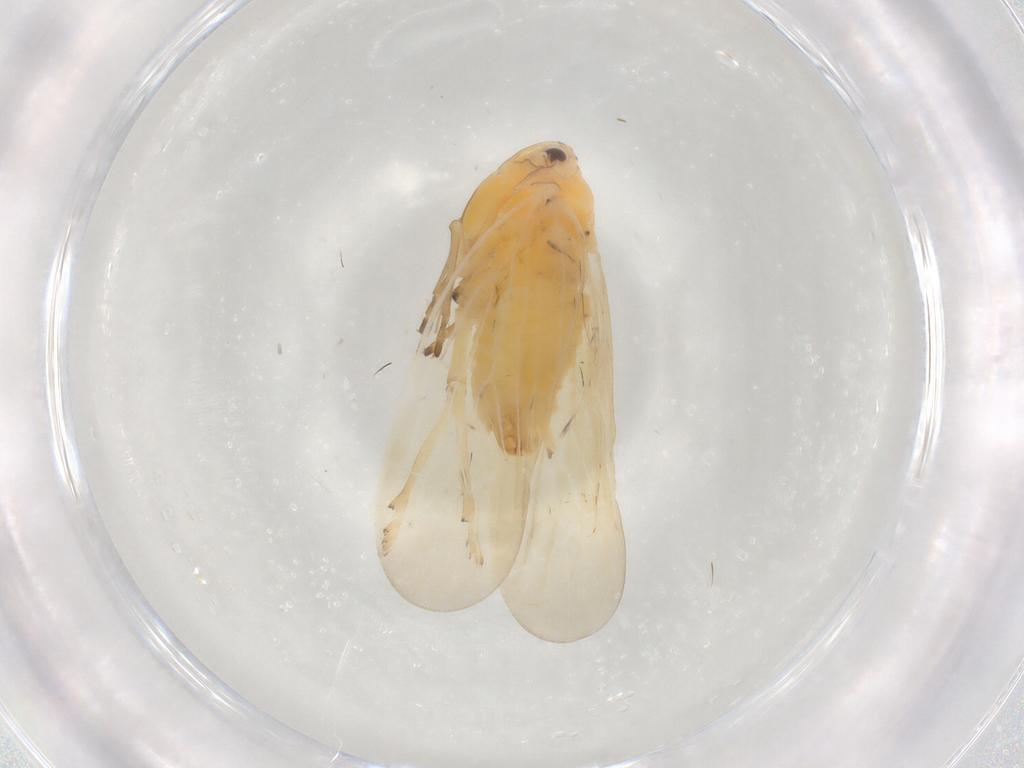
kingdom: Animalia
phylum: Arthropoda
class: Insecta
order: Hemiptera
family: Derbidae
